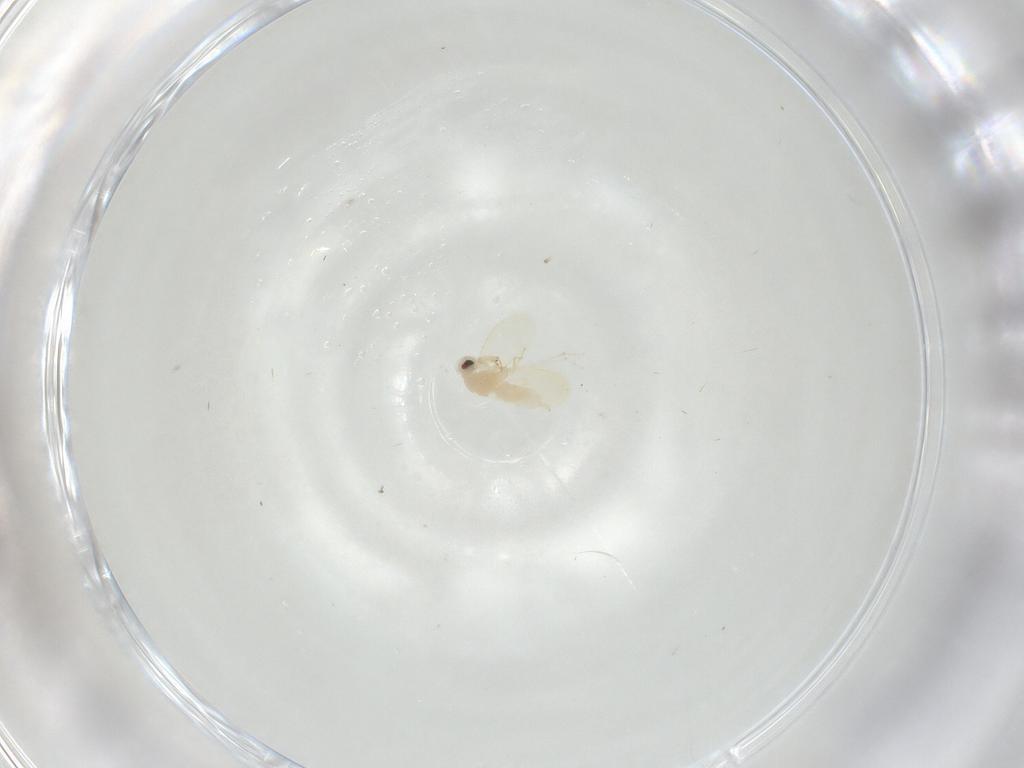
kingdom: Animalia
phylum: Arthropoda
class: Insecta
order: Hemiptera
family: Aleyrodidae
